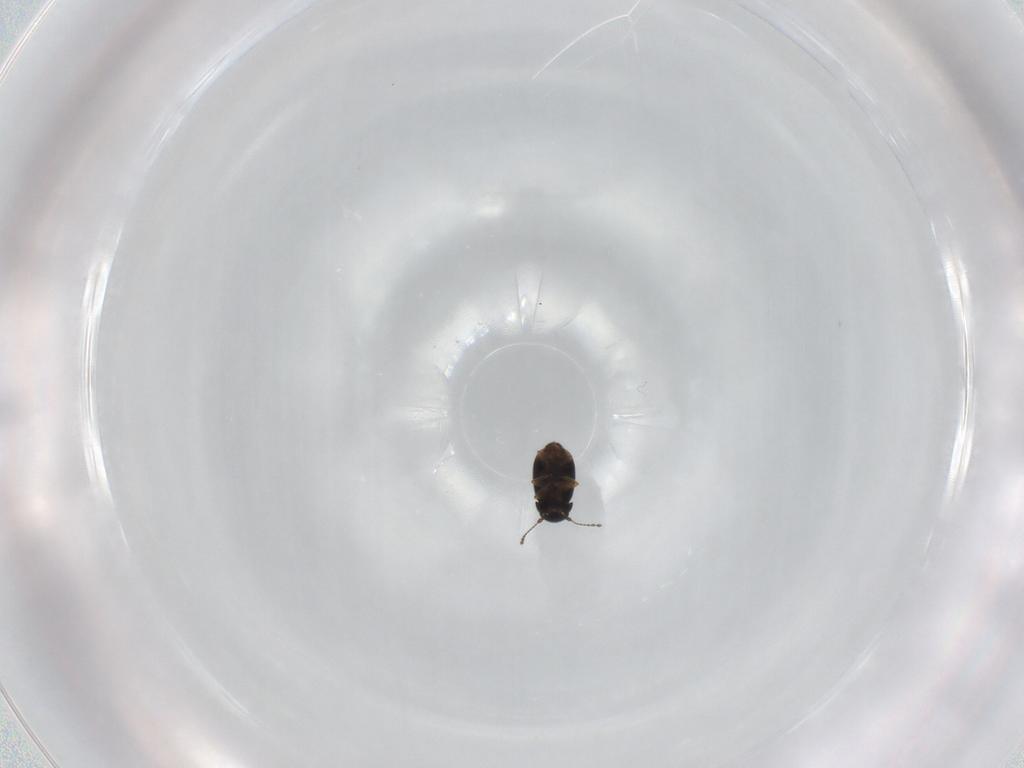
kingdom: Animalia
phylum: Arthropoda
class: Insecta
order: Coleoptera
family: Ptiliidae
